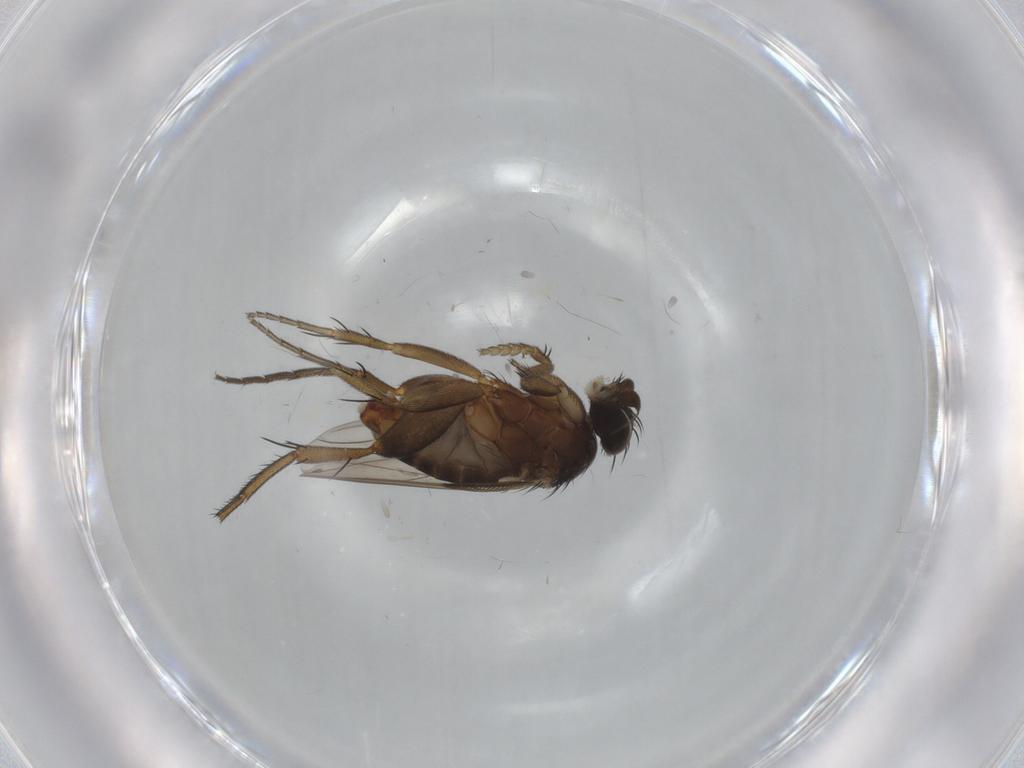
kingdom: Animalia
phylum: Arthropoda
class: Insecta
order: Diptera
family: Phoridae
